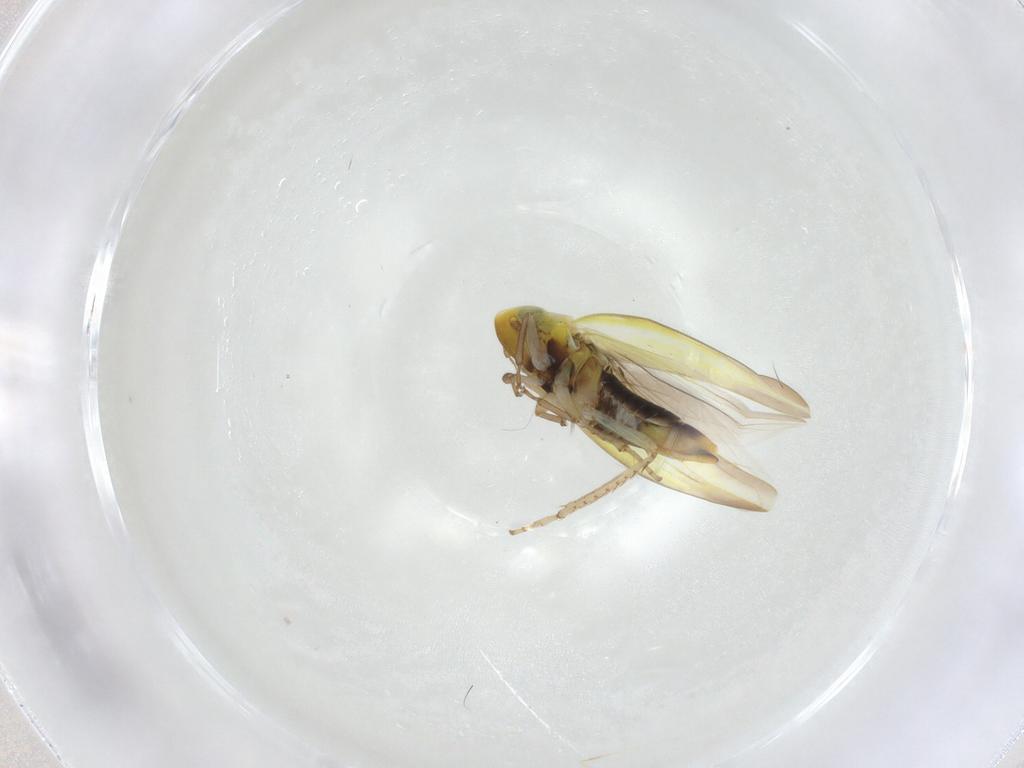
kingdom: Animalia
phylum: Arthropoda
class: Insecta
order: Hemiptera
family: Cicadellidae
